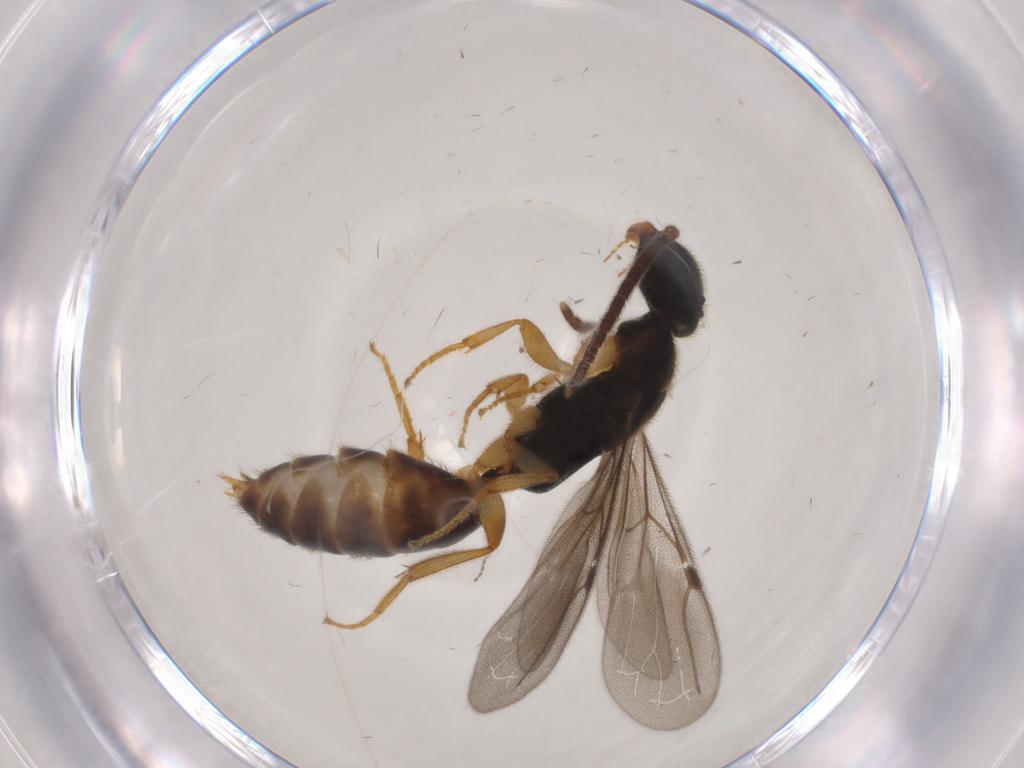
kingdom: Animalia
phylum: Arthropoda
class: Insecta
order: Hymenoptera
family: Bethylidae
